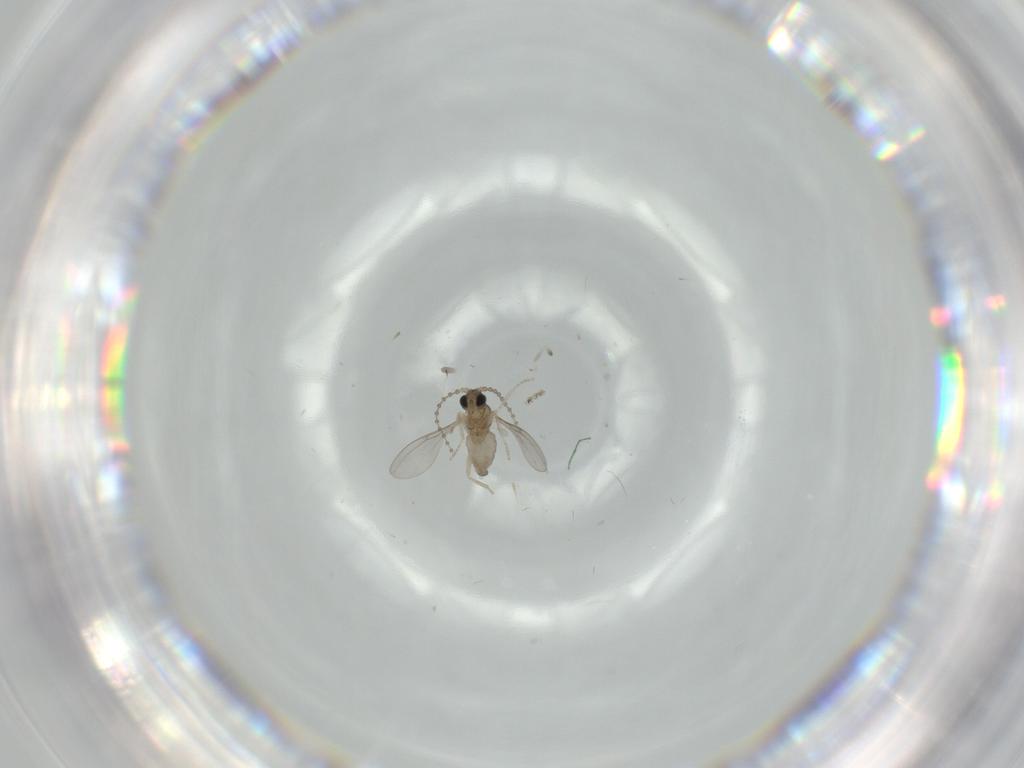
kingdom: Animalia
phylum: Arthropoda
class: Insecta
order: Diptera
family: Cecidomyiidae
